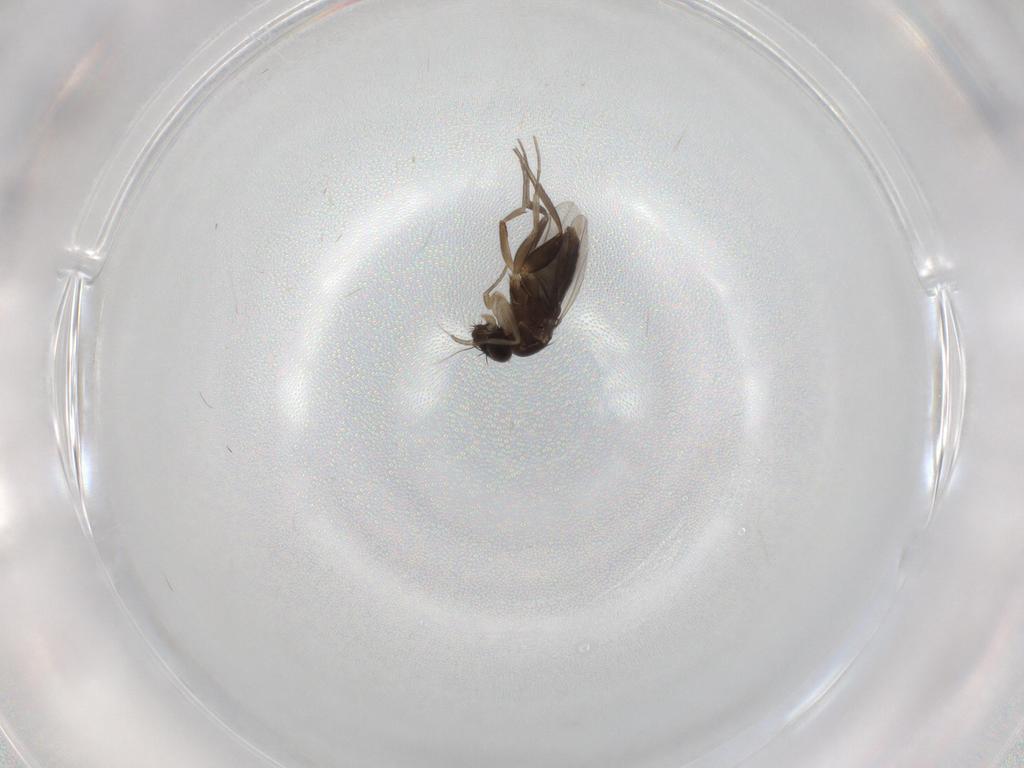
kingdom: Animalia
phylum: Arthropoda
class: Insecta
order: Diptera
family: Phoridae
